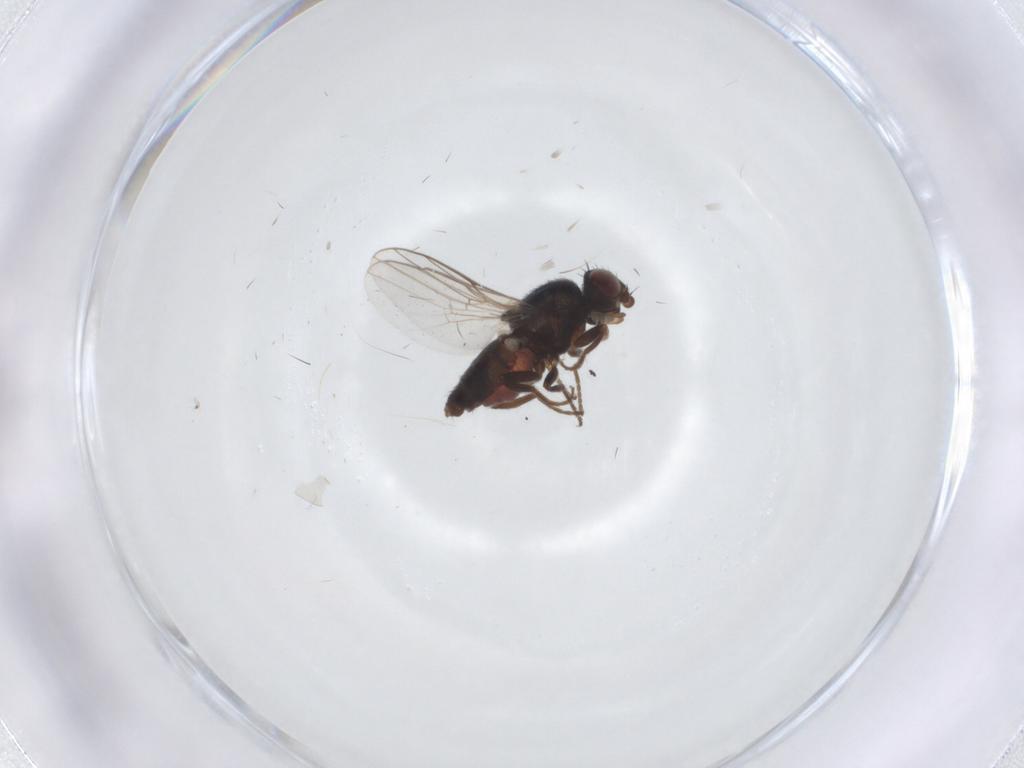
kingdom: Animalia
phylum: Arthropoda
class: Insecta
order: Diptera
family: Chloropidae
